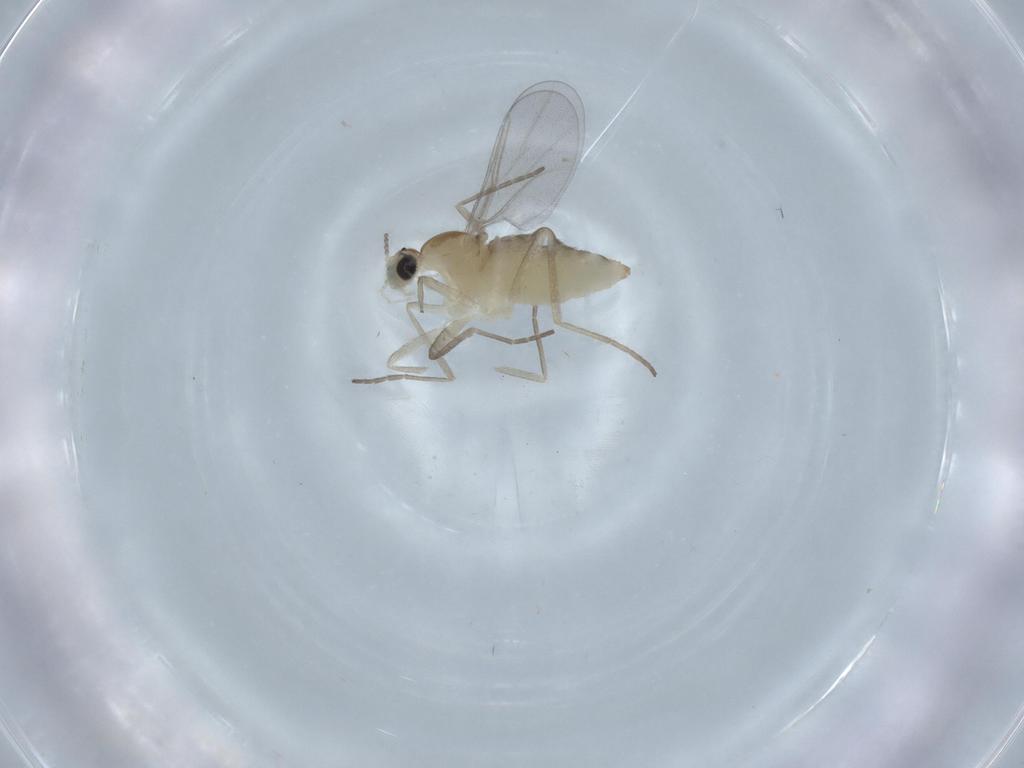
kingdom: Animalia
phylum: Arthropoda
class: Insecta
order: Diptera
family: Cecidomyiidae
